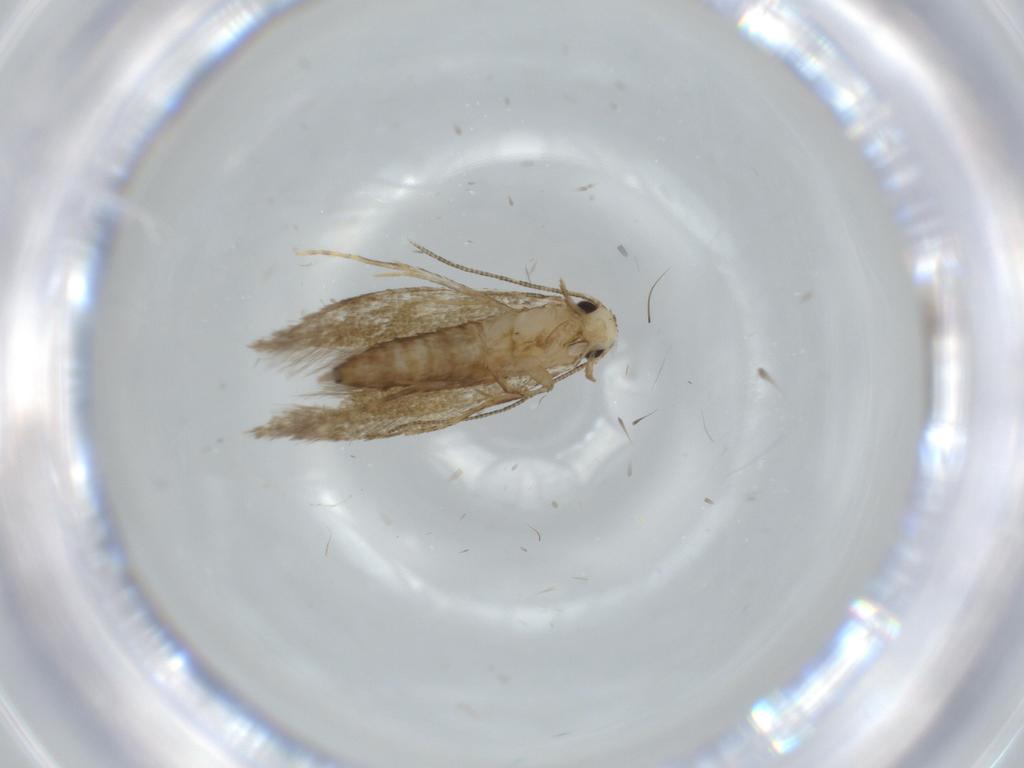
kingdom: Animalia
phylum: Arthropoda
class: Insecta
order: Lepidoptera
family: Tineidae
